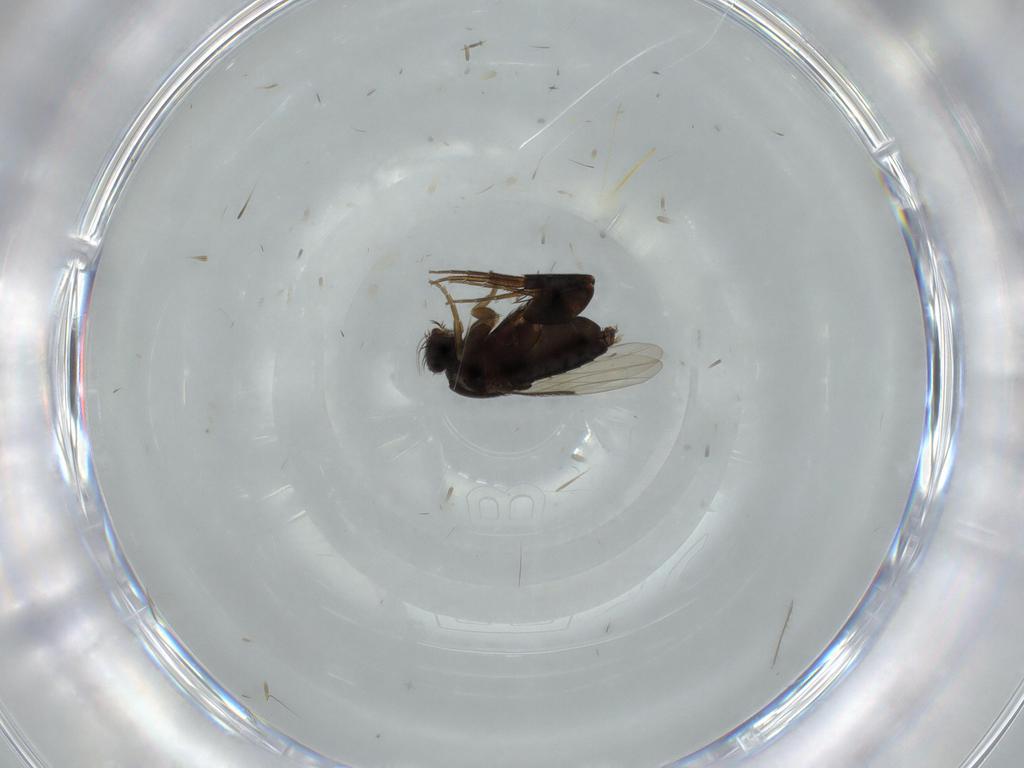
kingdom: Animalia
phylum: Arthropoda
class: Insecta
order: Diptera
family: Phoridae
